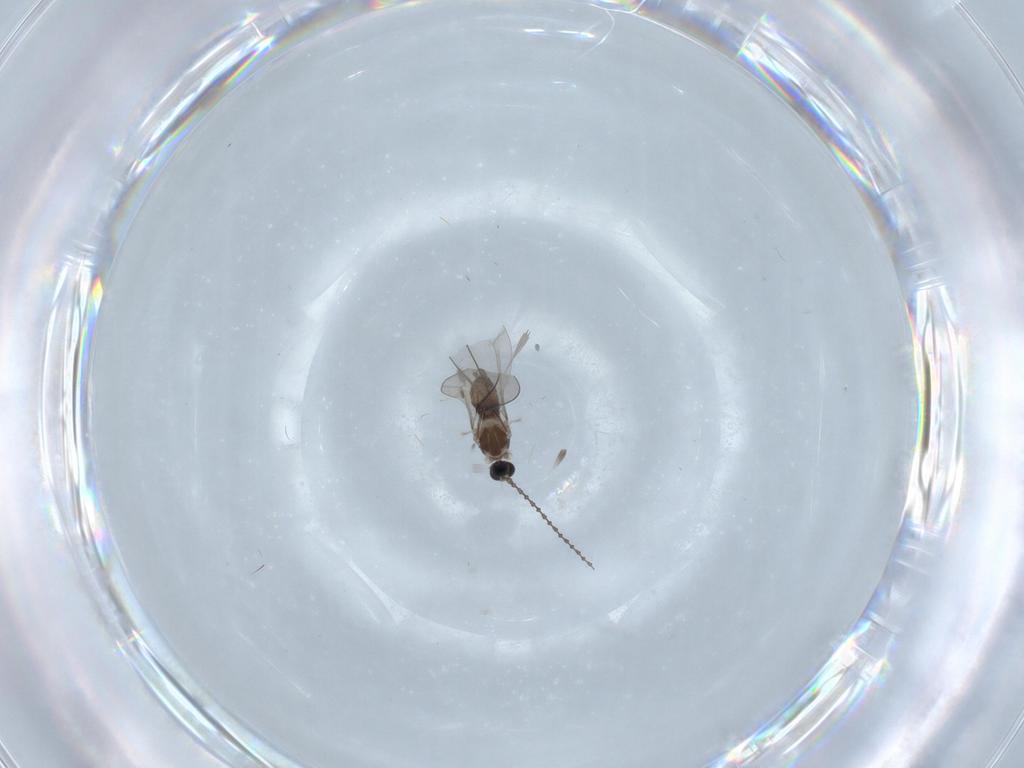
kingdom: Animalia
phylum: Arthropoda
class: Insecta
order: Diptera
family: Cecidomyiidae
